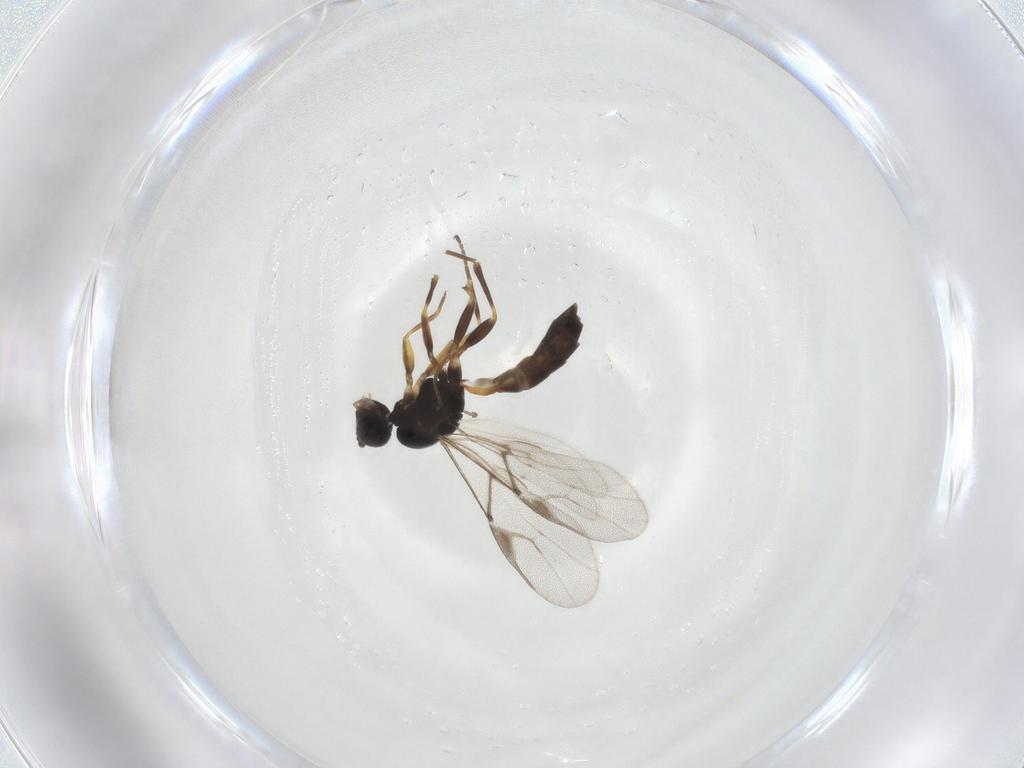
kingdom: Animalia
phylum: Arthropoda
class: Insecta
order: Hymenoptera
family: Braconidae
